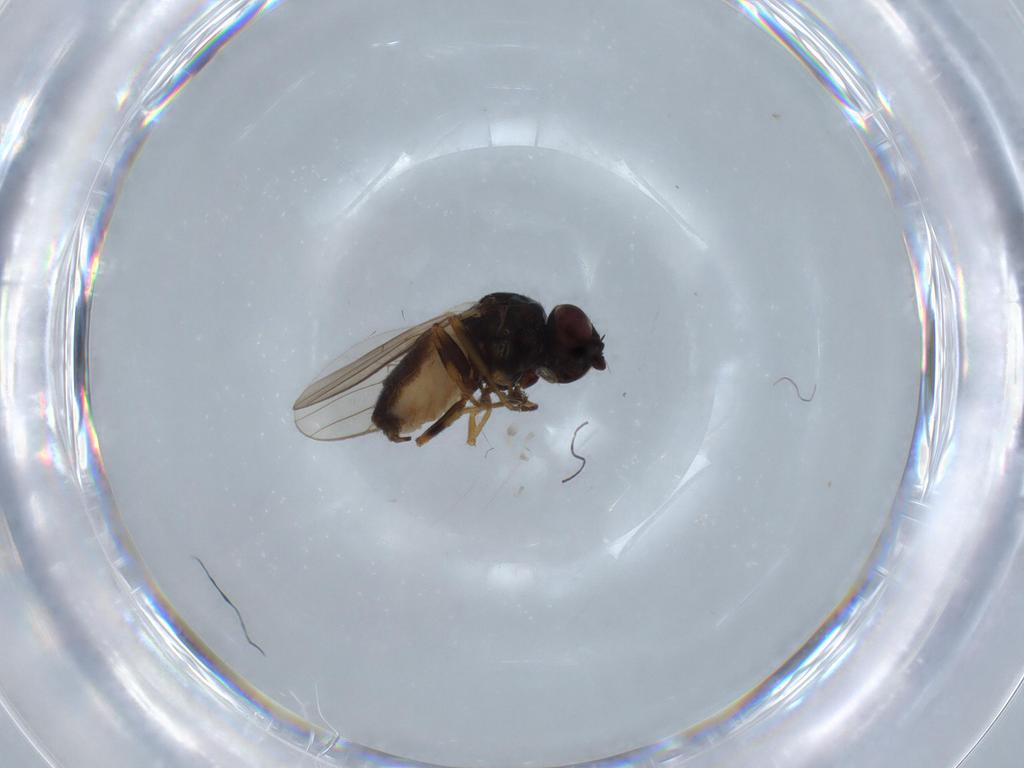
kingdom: Animalia
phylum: Arthropoda
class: Insecta
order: Diptera
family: Chloropidae
